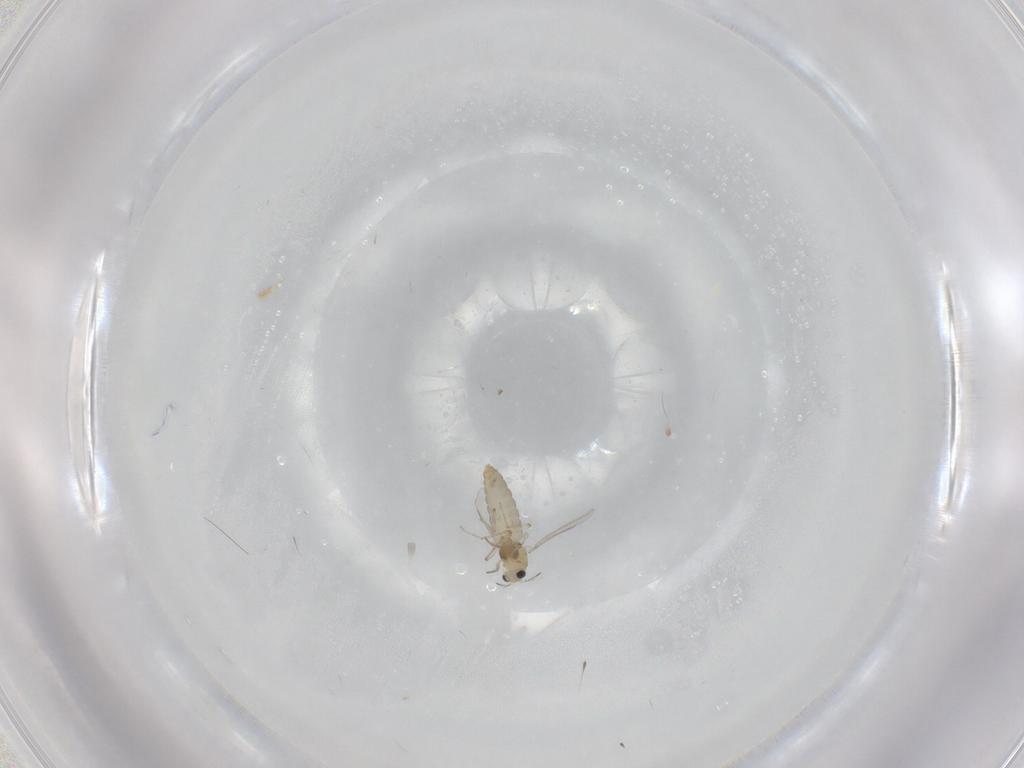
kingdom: Animalia
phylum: Arthropoda
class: Insecta
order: Diptera
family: Chironomidae
